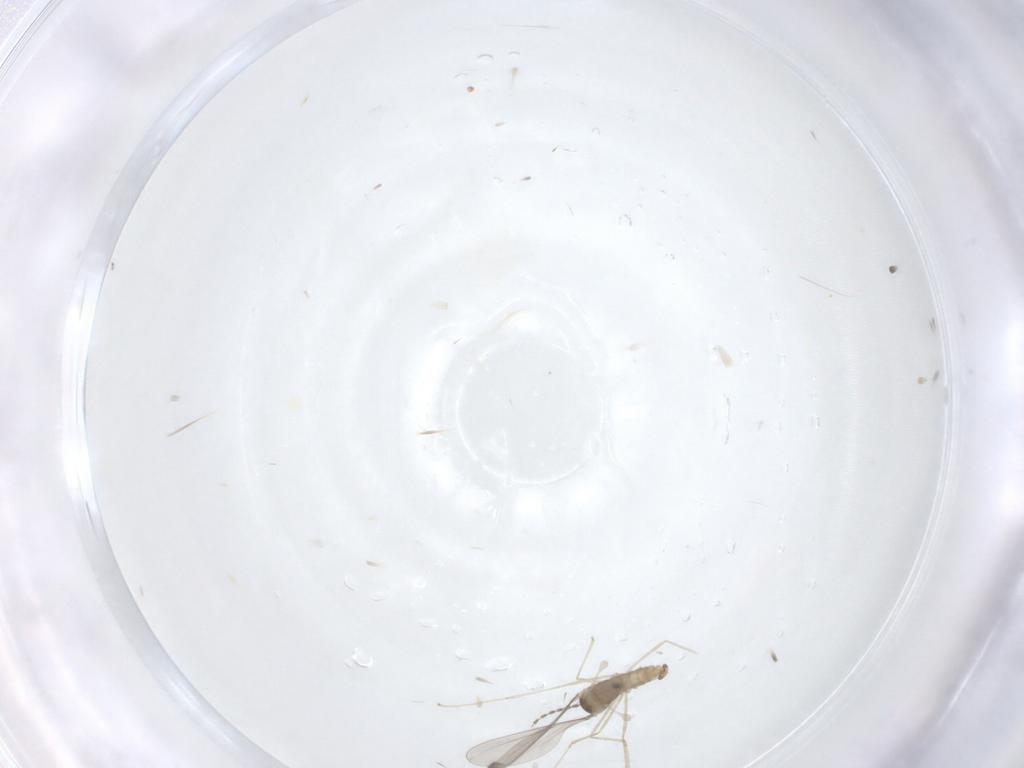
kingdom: Animalia
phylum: Arthropoda
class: Insecta
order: Diptera
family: Cecidomyiidae
